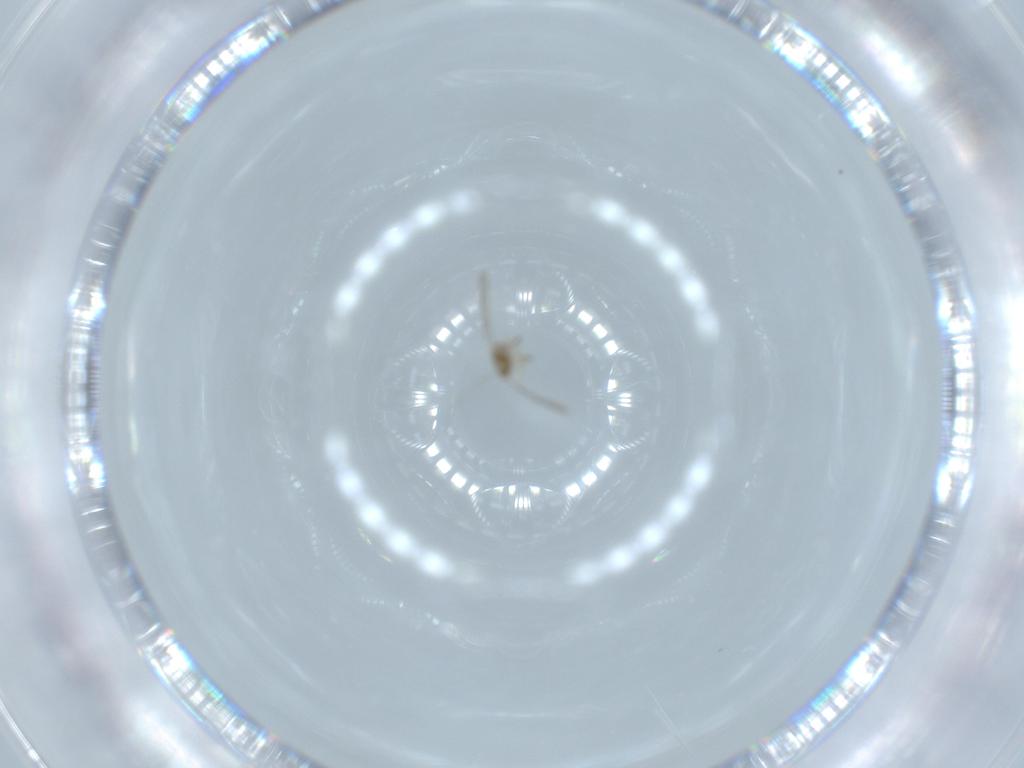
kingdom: Animalia
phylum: Arthropoda
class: Insecta
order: Hymenoptera
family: Aphelinidae
